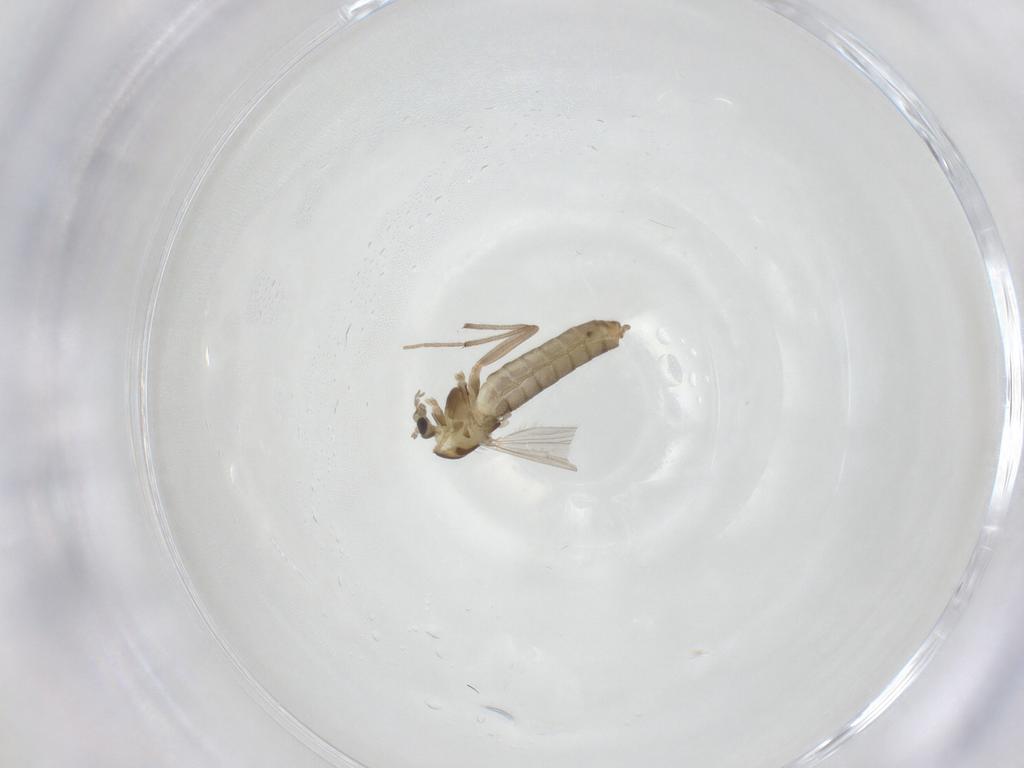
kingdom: Animalia
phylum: Arthropoda
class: Insecta
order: Diptera
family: Chironomidae
